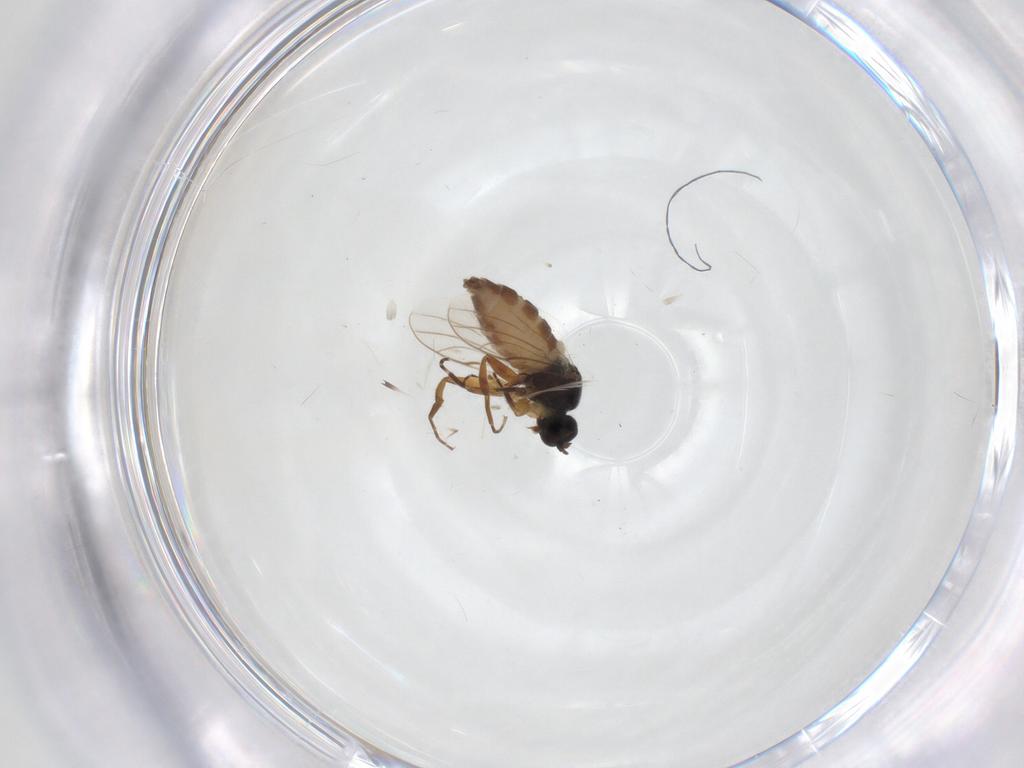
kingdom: Animalia
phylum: Arthropoda
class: Insecta
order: Diptera
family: Hybotidae
